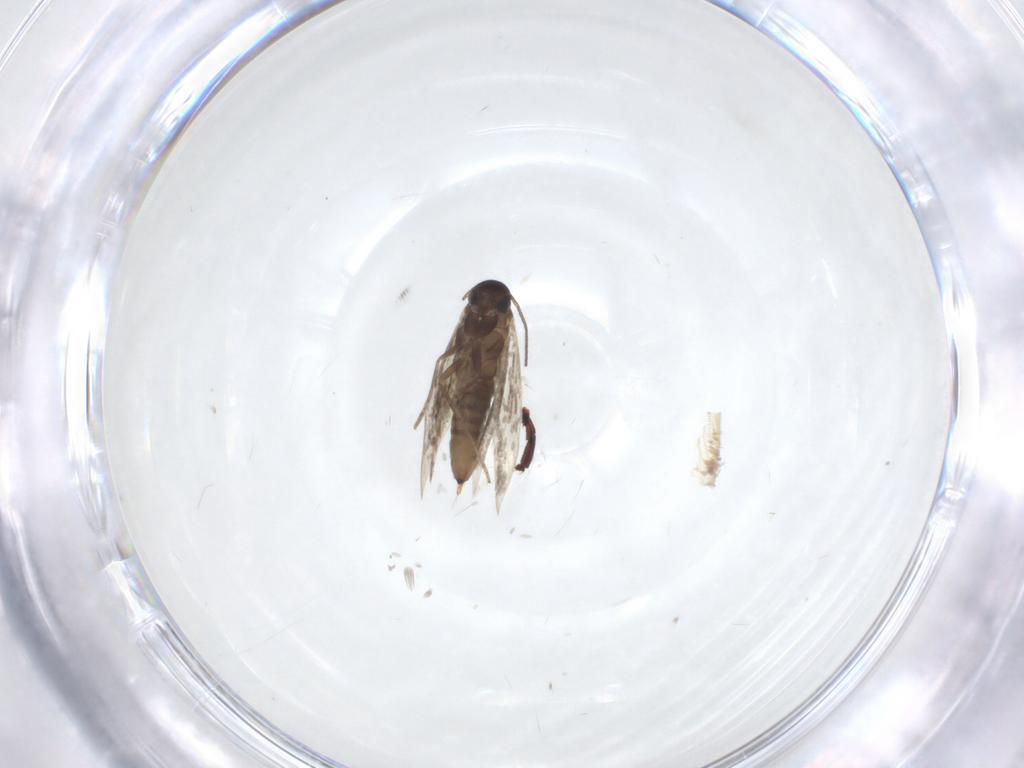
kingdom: Animalia
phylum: Arthropoda
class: Insecta
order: Lepidoptera
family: Heliozelidae
